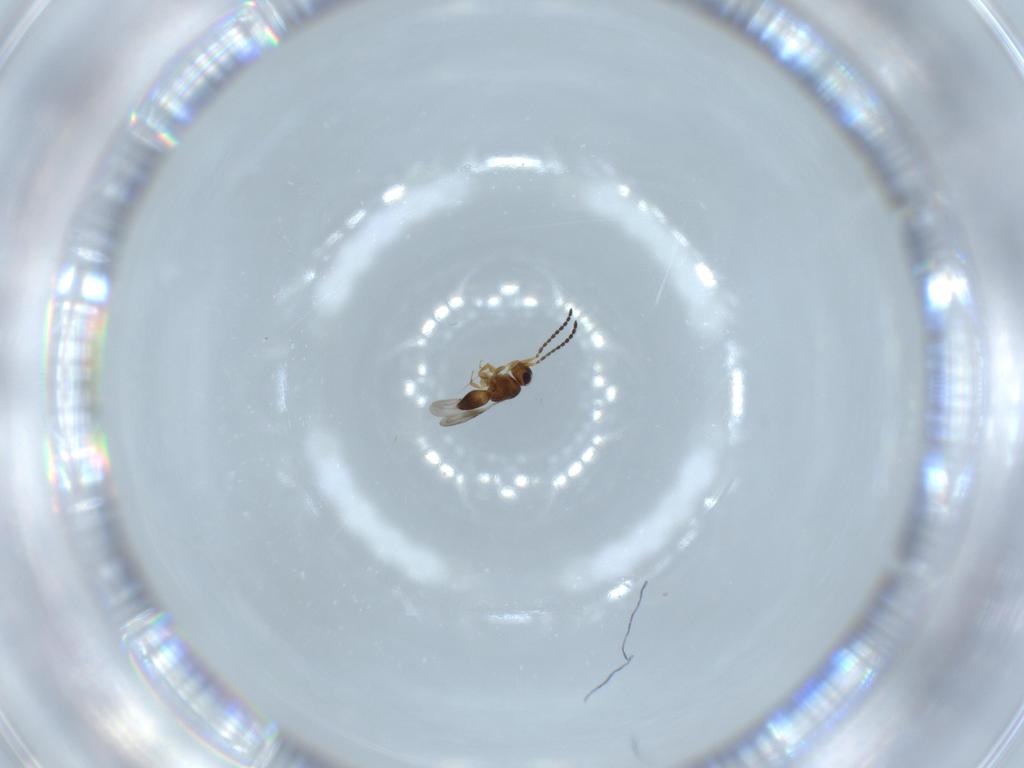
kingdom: Animalia
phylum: Arthropoda
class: Insecta
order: Hymenoptera
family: Ceraphronidae
